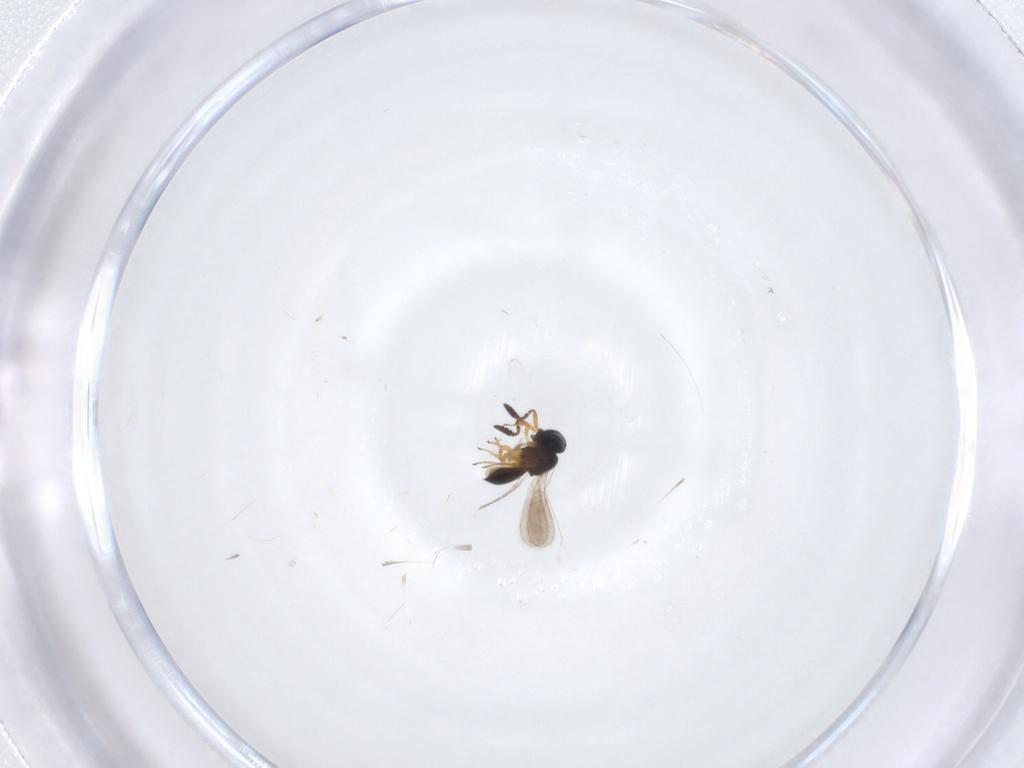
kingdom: Animalia
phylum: Arthropoda
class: Insecta
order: Hymenoptera
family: Scelionidae
